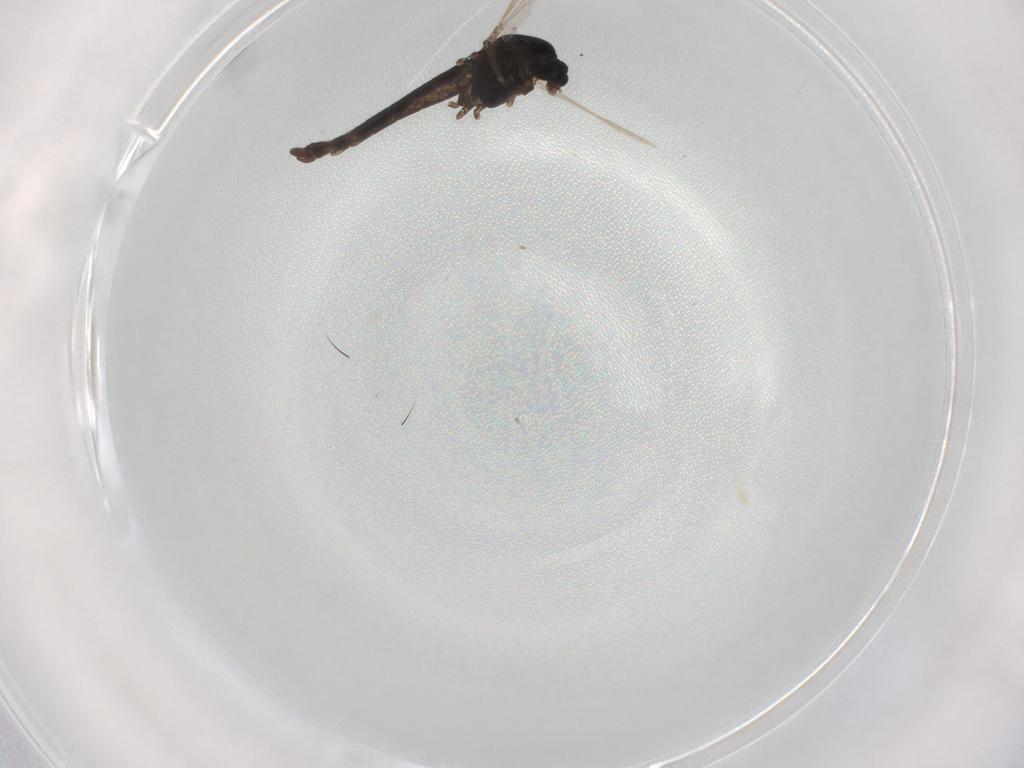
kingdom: Animalia
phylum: Arthropoda
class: Insecta
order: Diptera
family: Chironomidae
